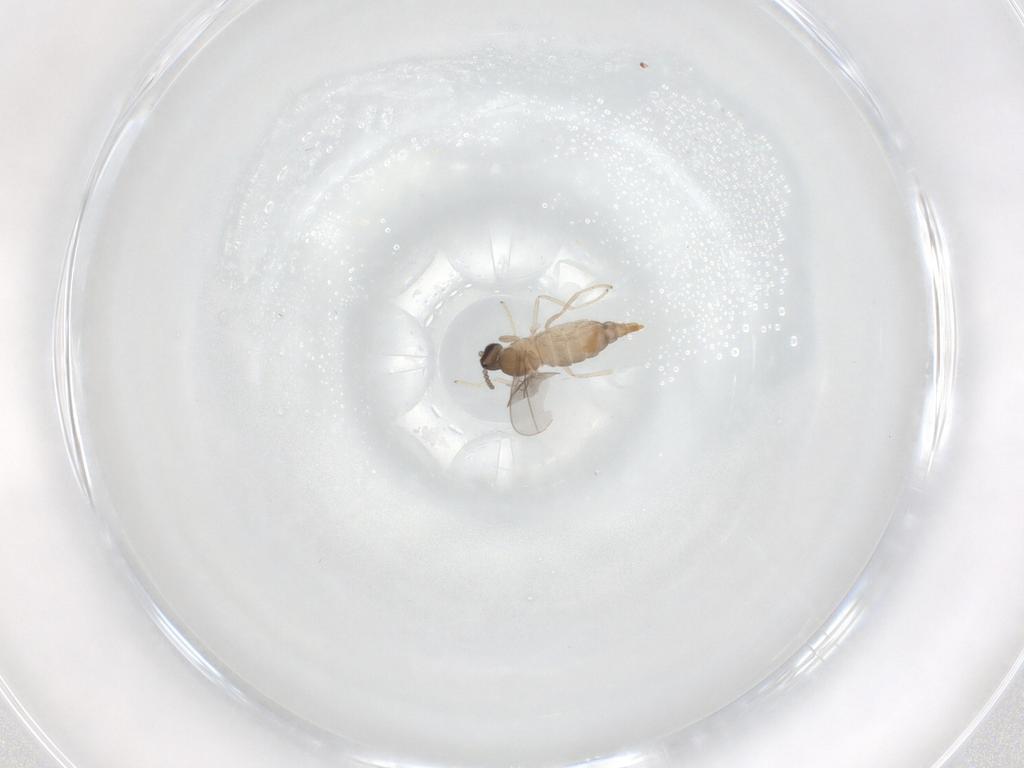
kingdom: Animalia
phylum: Arthropoda
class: Insecta
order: Diptera
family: Cecidomyiidae
